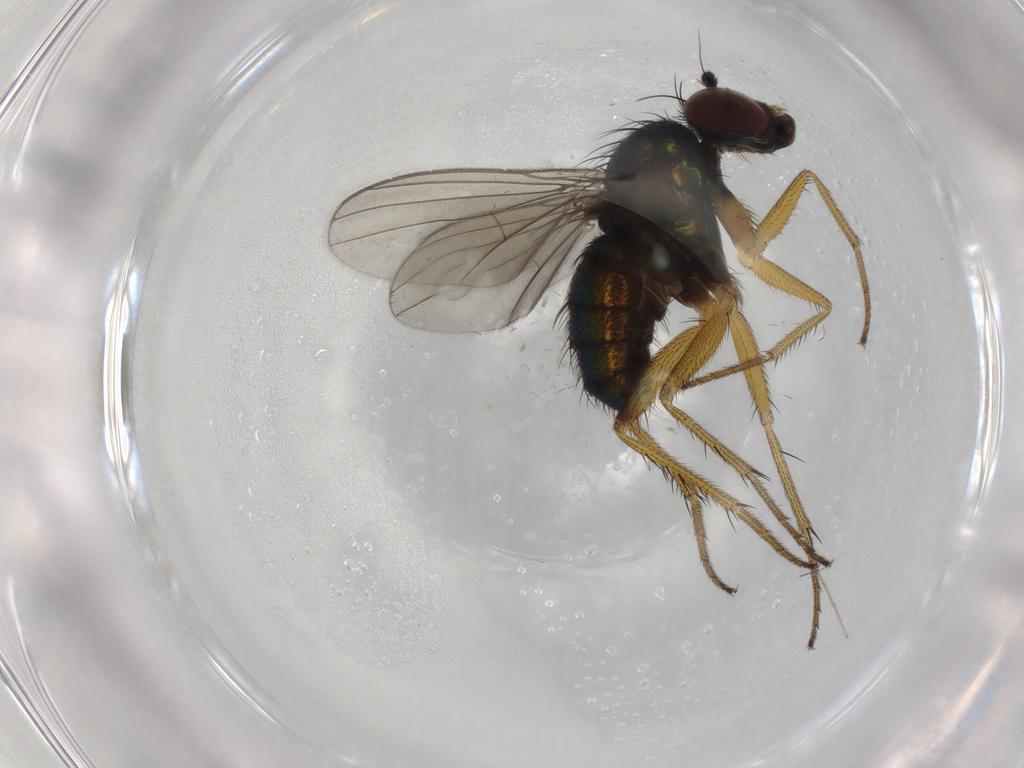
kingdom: Animalia
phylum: Arthropoda
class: Insecta
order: Diptera
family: Dolichopodidae
